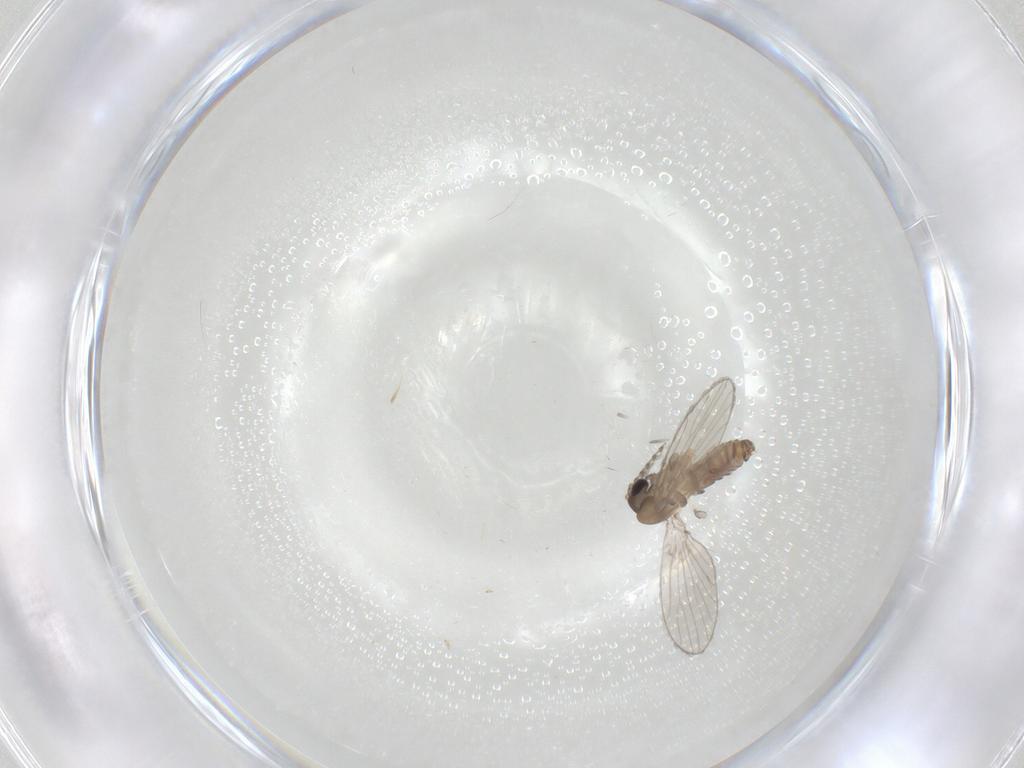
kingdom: Animalia
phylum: Arthropoda
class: Insecta
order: Diptera
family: Psychodidae
